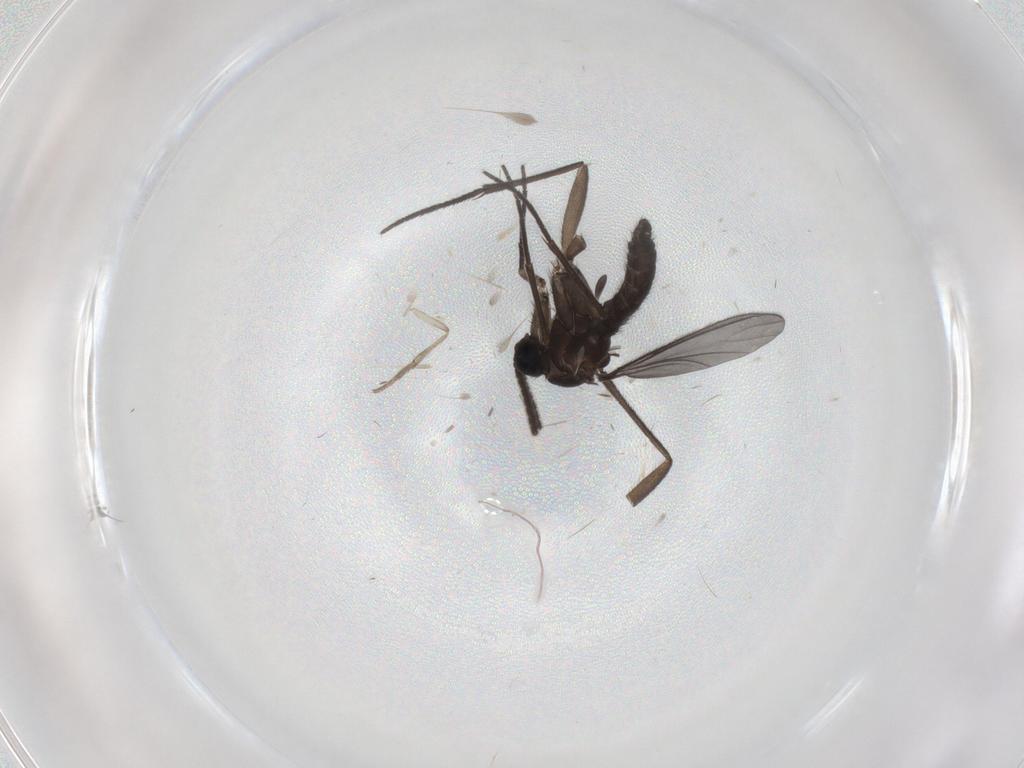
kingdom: Animalia
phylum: Arthropoda
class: Insecta
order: Diptera
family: Sciaridae
